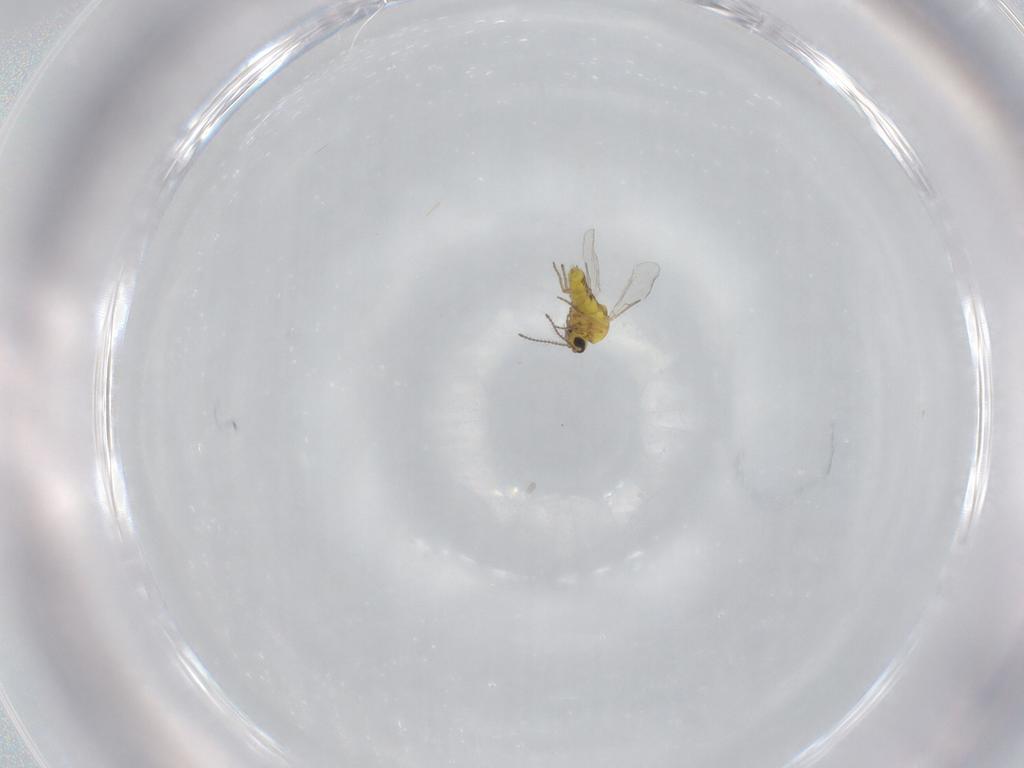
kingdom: Animalia
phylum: Arthropoda
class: Insecta
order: Diptera
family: Ceratopogonidae
